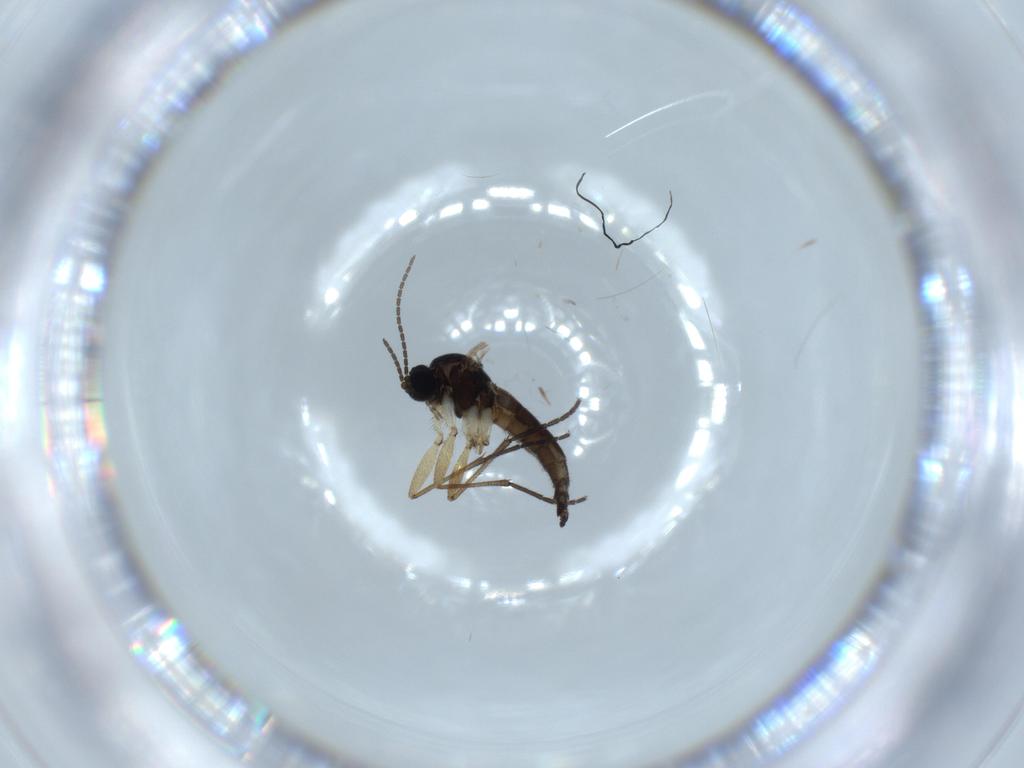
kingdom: Animalia
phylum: Arthropoda
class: Insecta
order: Diptera
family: Sciaridae
